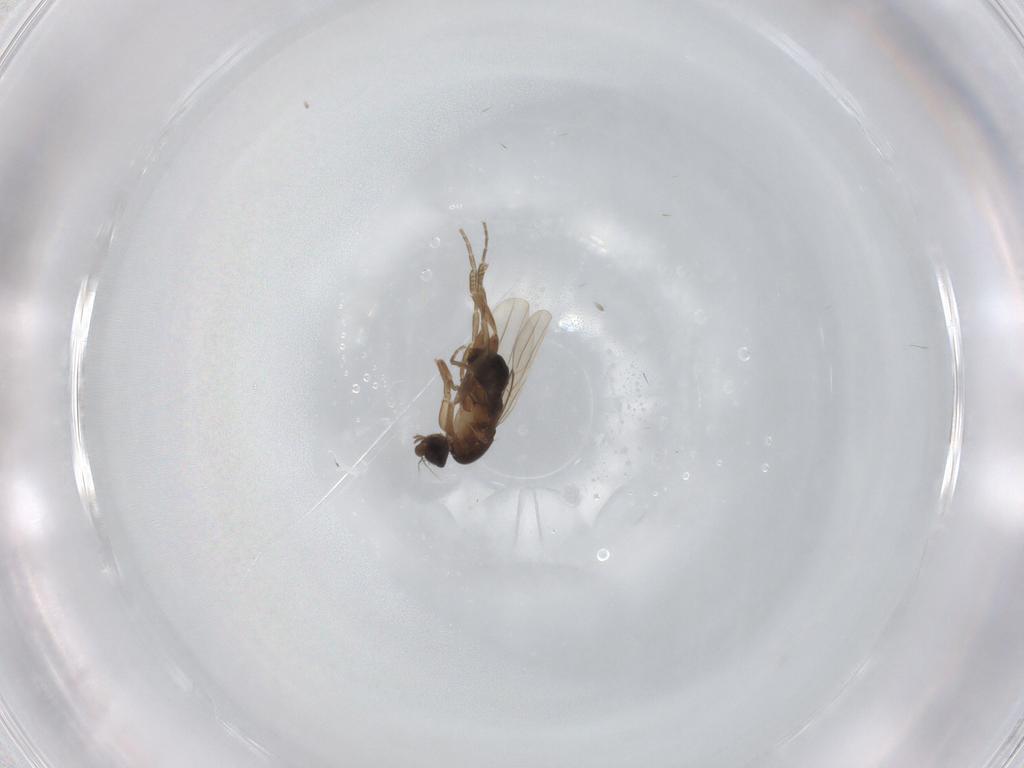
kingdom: Animalia
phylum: Arthropoda
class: Insecta
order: Diptera
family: Phoridae
